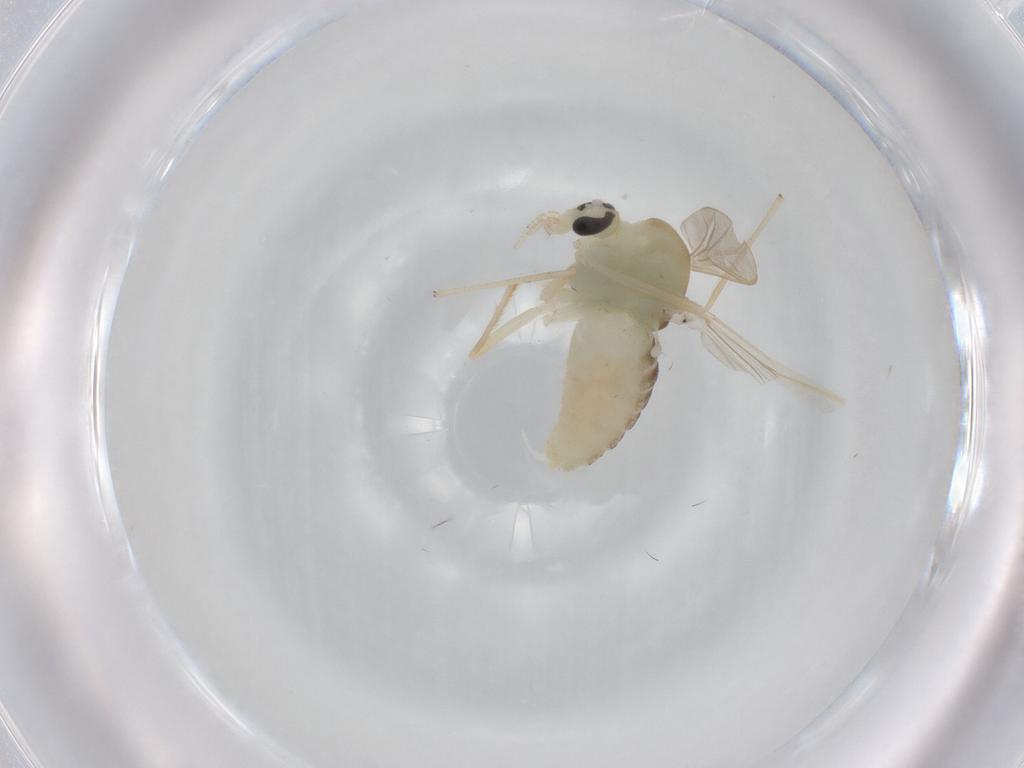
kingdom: Animalia
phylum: Arthropoda
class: Insecta
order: Diptera
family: Chironomidae
